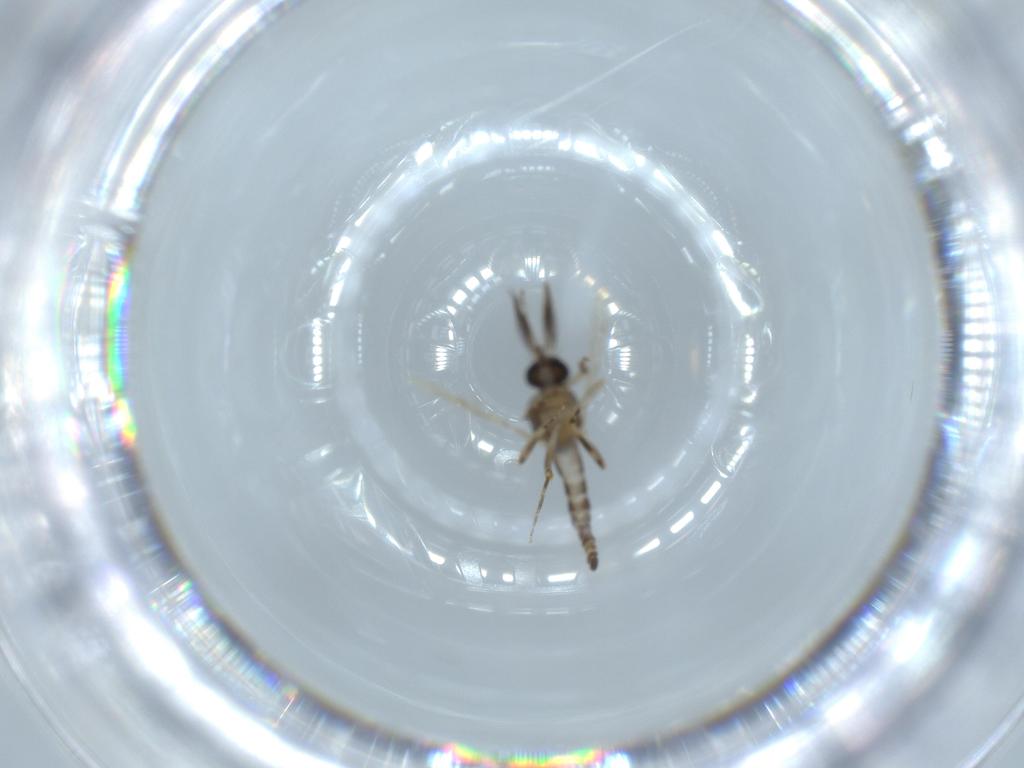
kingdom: Animalia
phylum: Arthropoda
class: Insecta
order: Diptera
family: Ceratopogonidae
